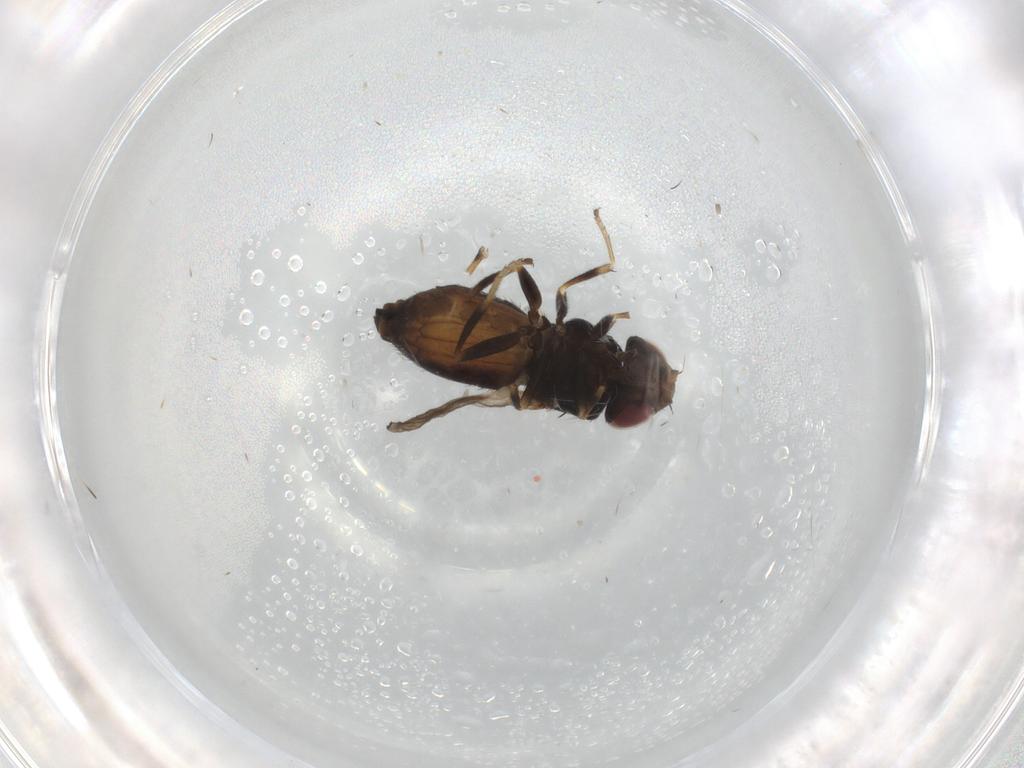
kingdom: Animalia
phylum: Arthropoda
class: Insecta
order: Diptera
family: Chloropidae
